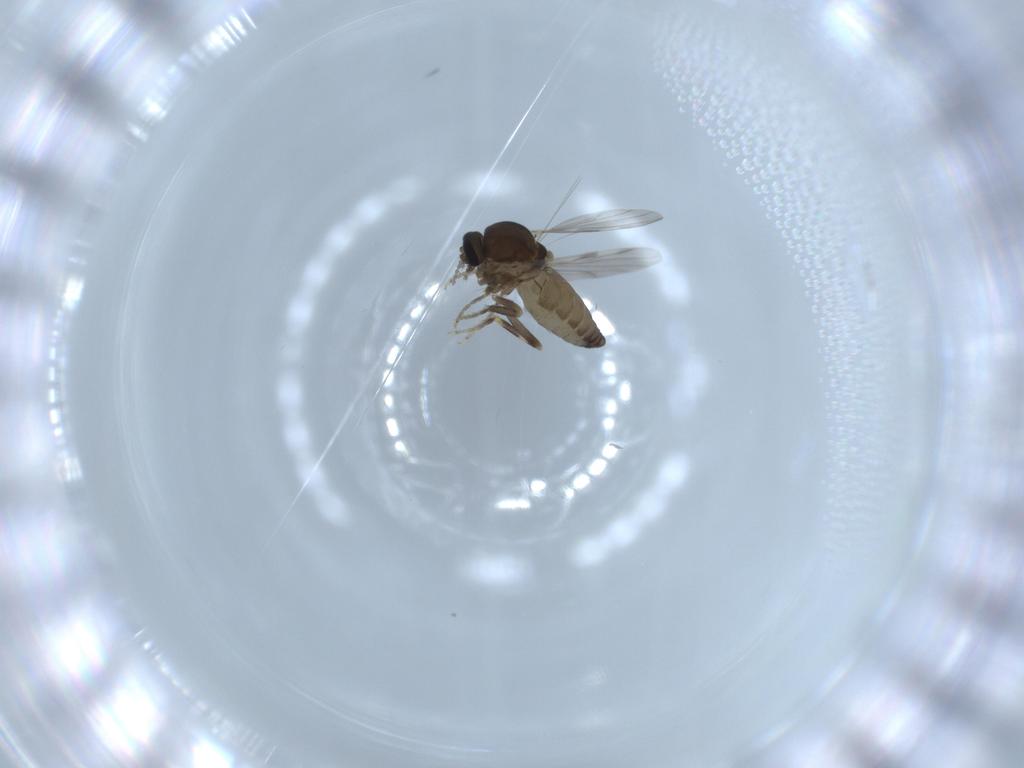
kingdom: Animalia
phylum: Arthropoda
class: Insecta
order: Diptera
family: Ceratopogonidae
